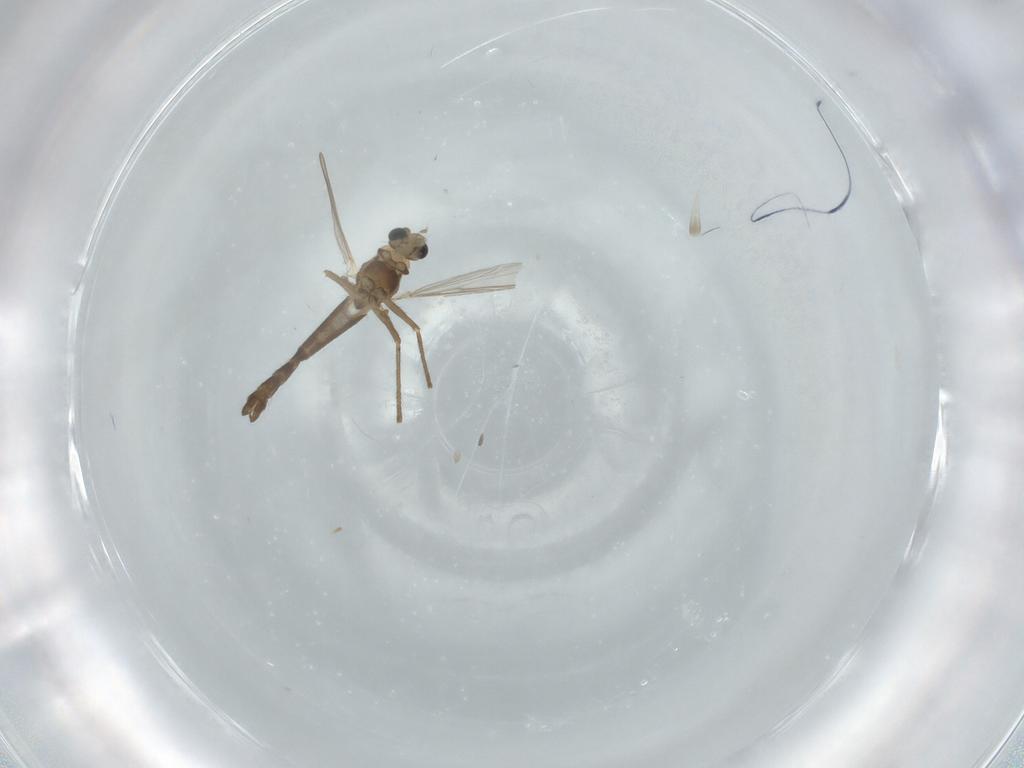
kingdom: Animalia
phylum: Arthropoda
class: Insecta
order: Diptera
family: Chironomidae
